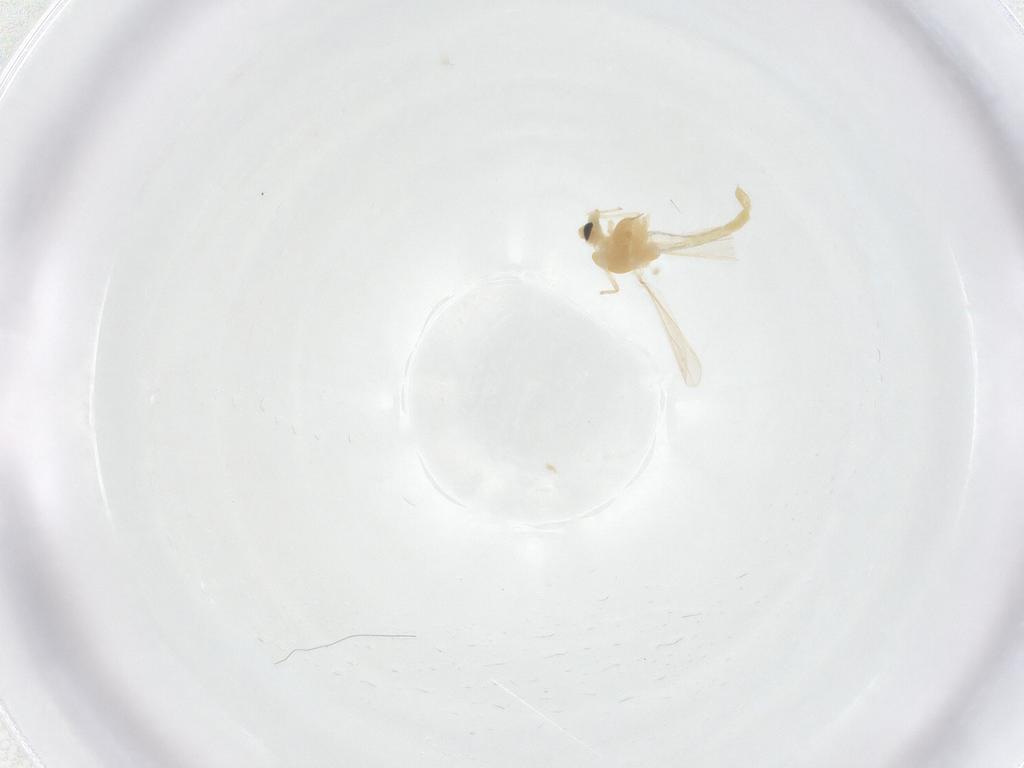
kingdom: Animalia
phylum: Arthropoda
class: Insecta
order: Diptera
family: Chironomidae
